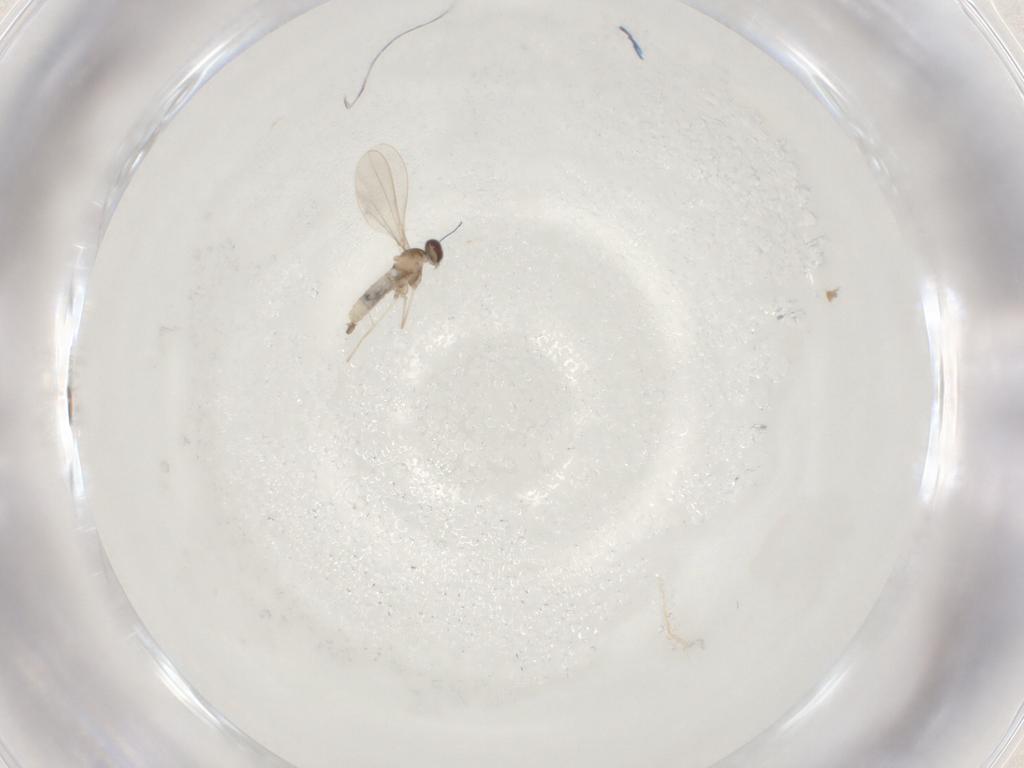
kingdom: Animalia
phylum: Arthropoda
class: Insecta
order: Diptera
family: Cecidomyiidae
